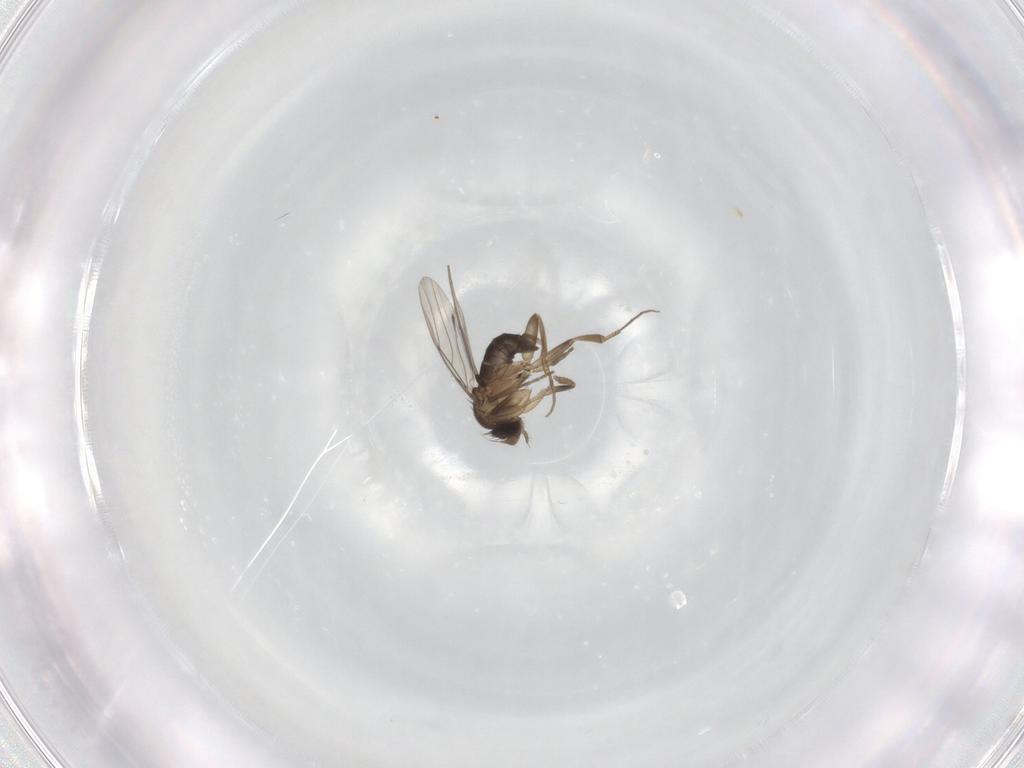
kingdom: Animalia
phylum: Arthropoda
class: Insecta
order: Diptera
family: Phoridae
